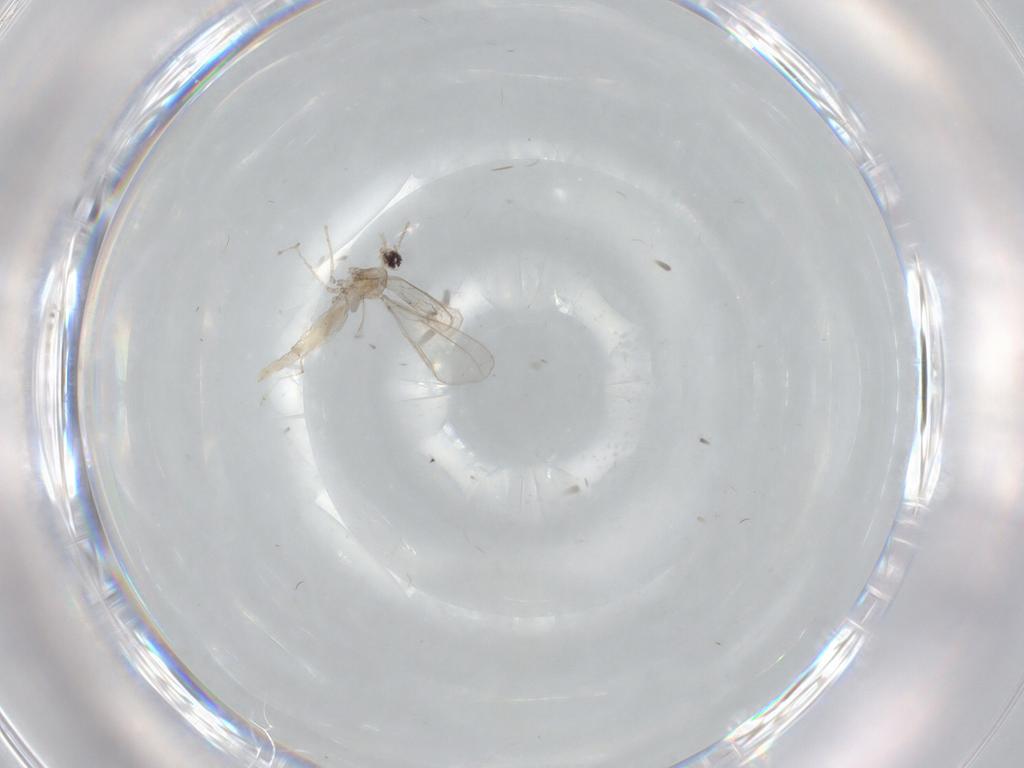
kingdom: Animalia
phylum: Arthropoda
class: Insecta
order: Diptera
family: Cecidomyiidae
